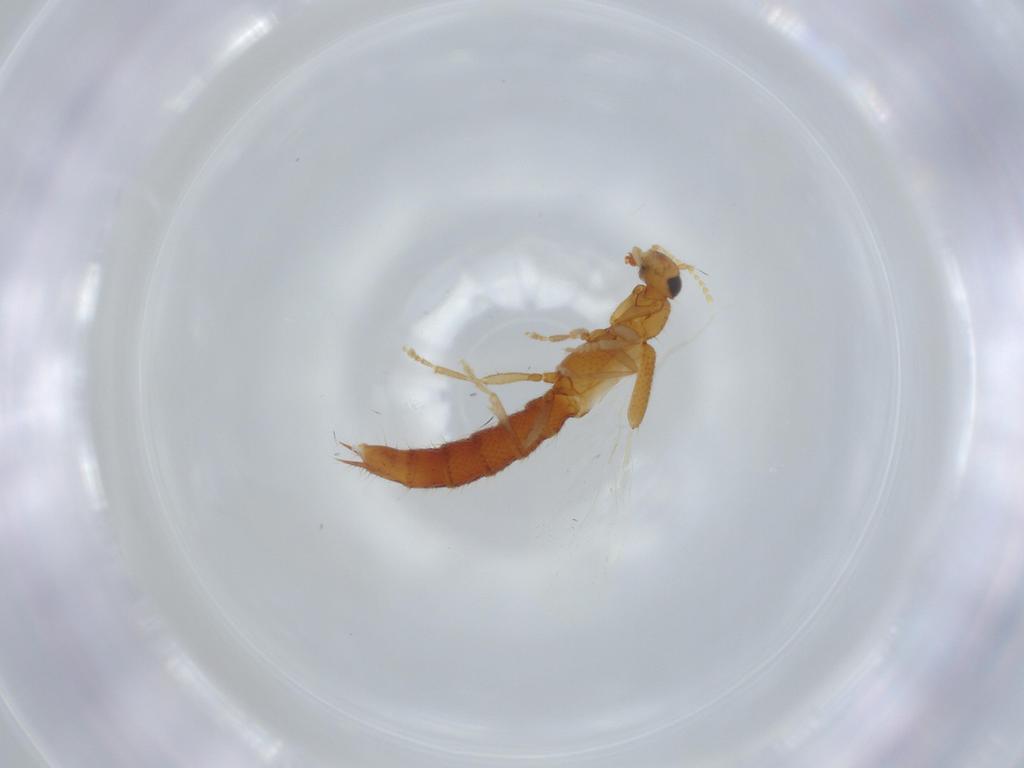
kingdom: Animalia
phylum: Arthropoda
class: Insecta
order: Coleoptera
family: Staphylinidae
